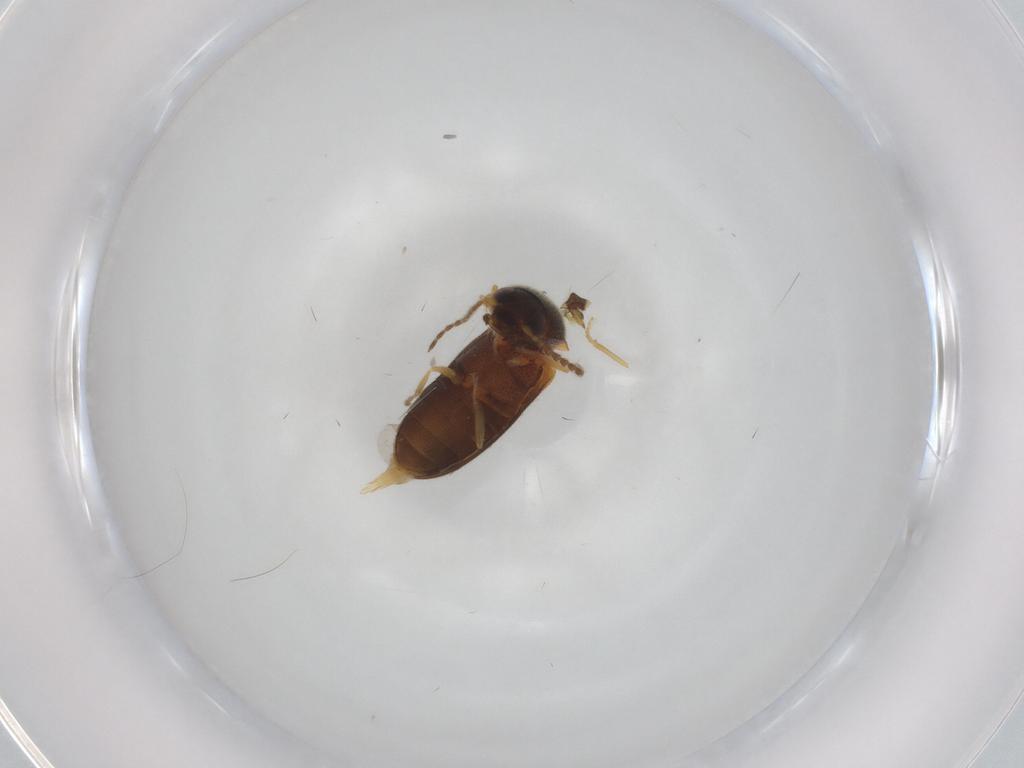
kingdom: Animalia
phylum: Arthropoda
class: Insecta
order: Coleoptera
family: Elateridae
